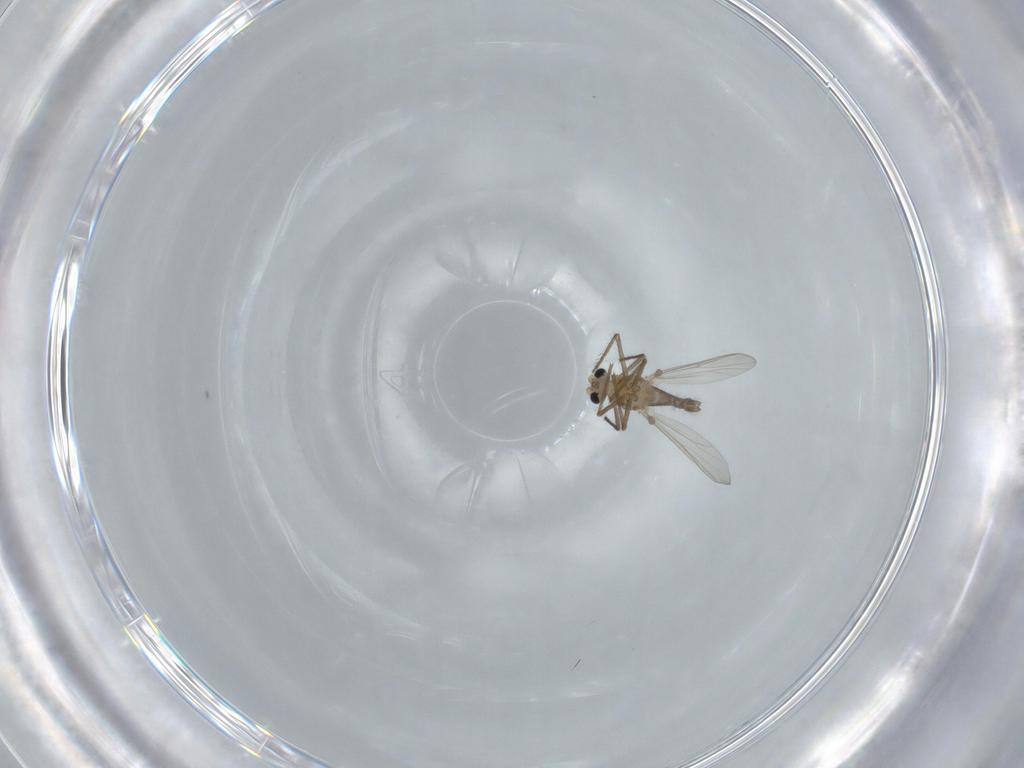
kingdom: Animalia
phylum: Arthropoda
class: Insecta
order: Diptera
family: Chironomidae
